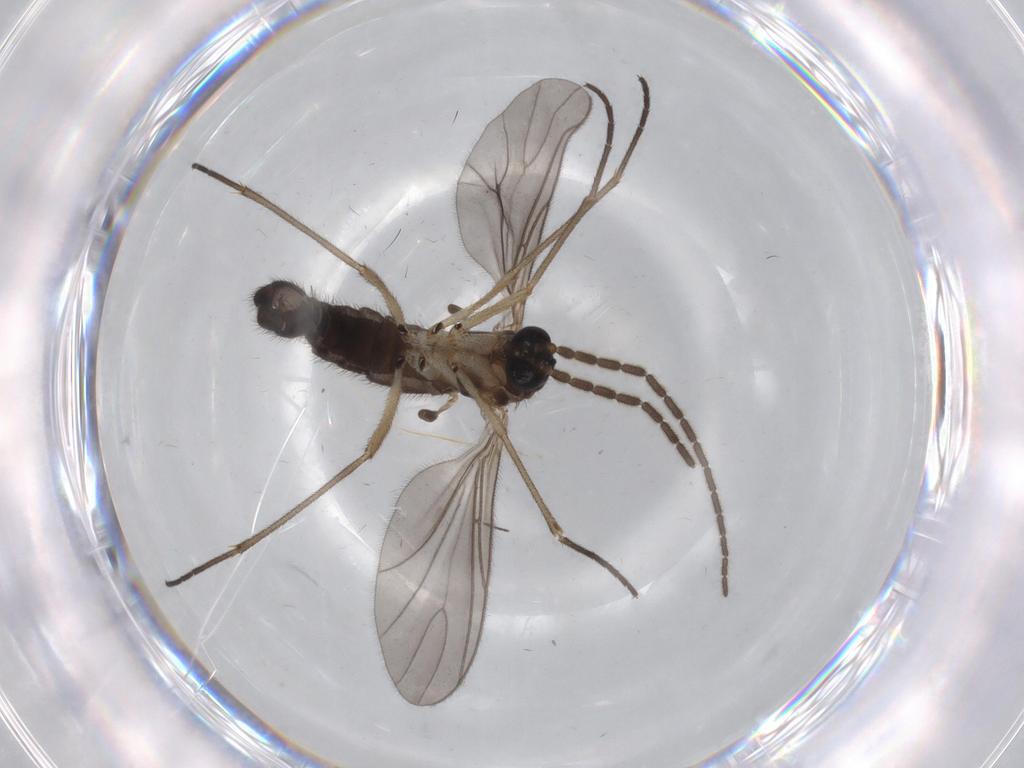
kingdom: Animalia
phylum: Arthropoda
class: Insecta
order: Diptera
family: Sciaridae
